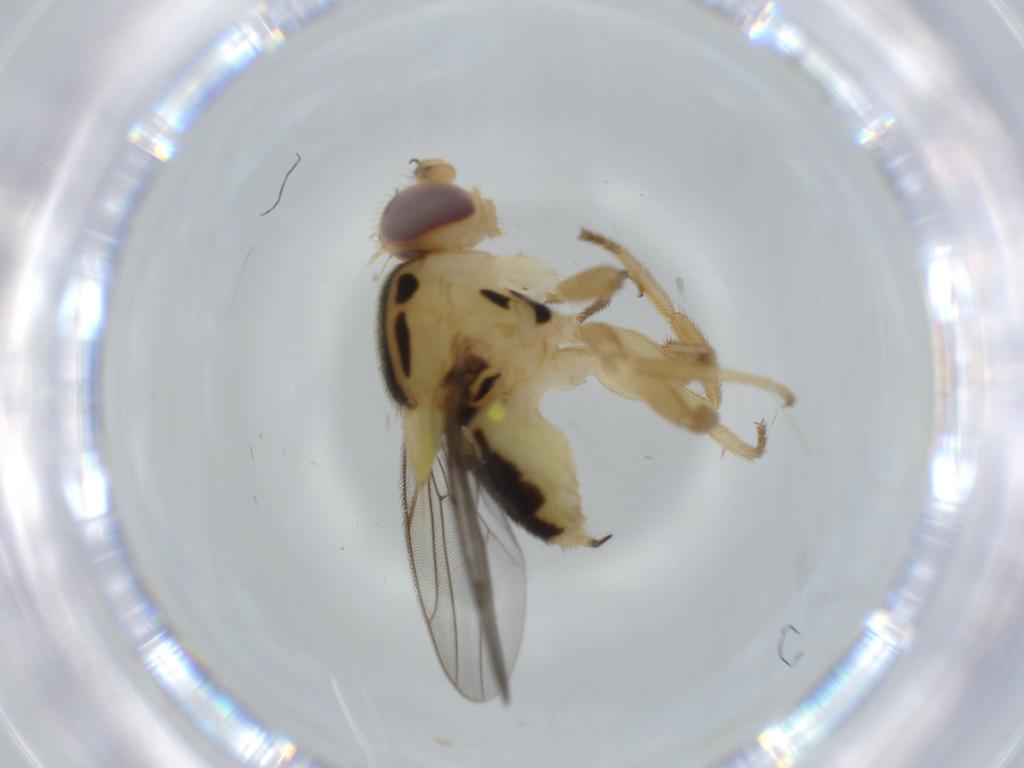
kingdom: Animalia
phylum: Arthropoda
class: Insecta
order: Diptera
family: Chloropidae
